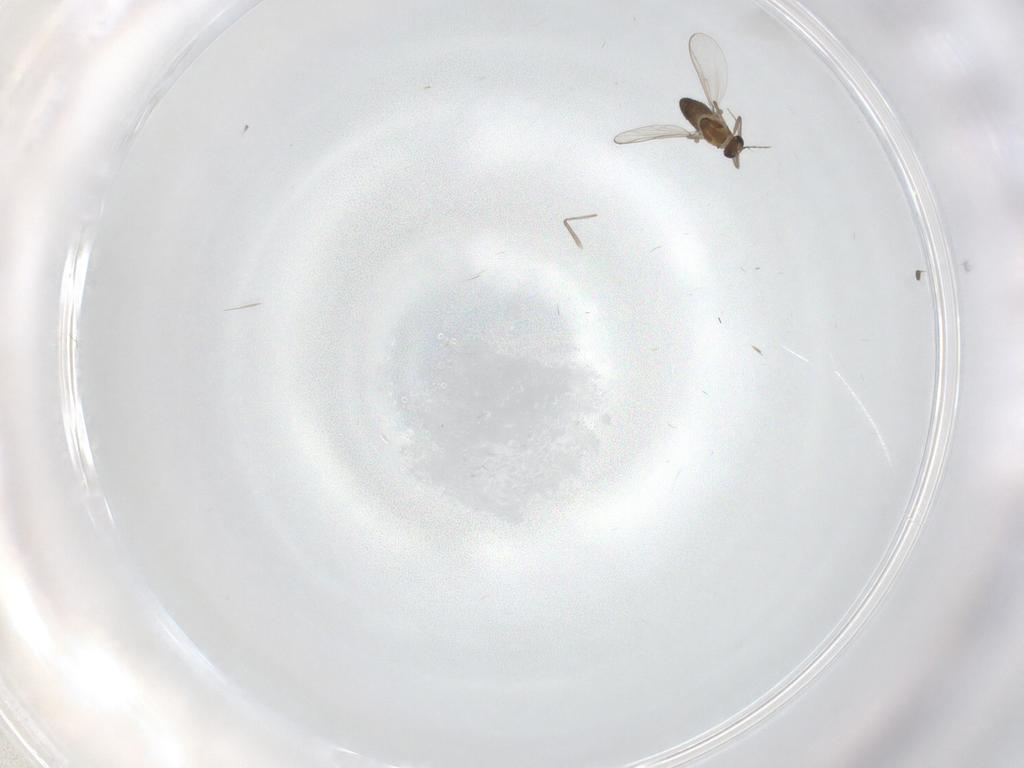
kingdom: Animalia
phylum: Arthropoda
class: Insecta
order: Diptera
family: Chironomidae
